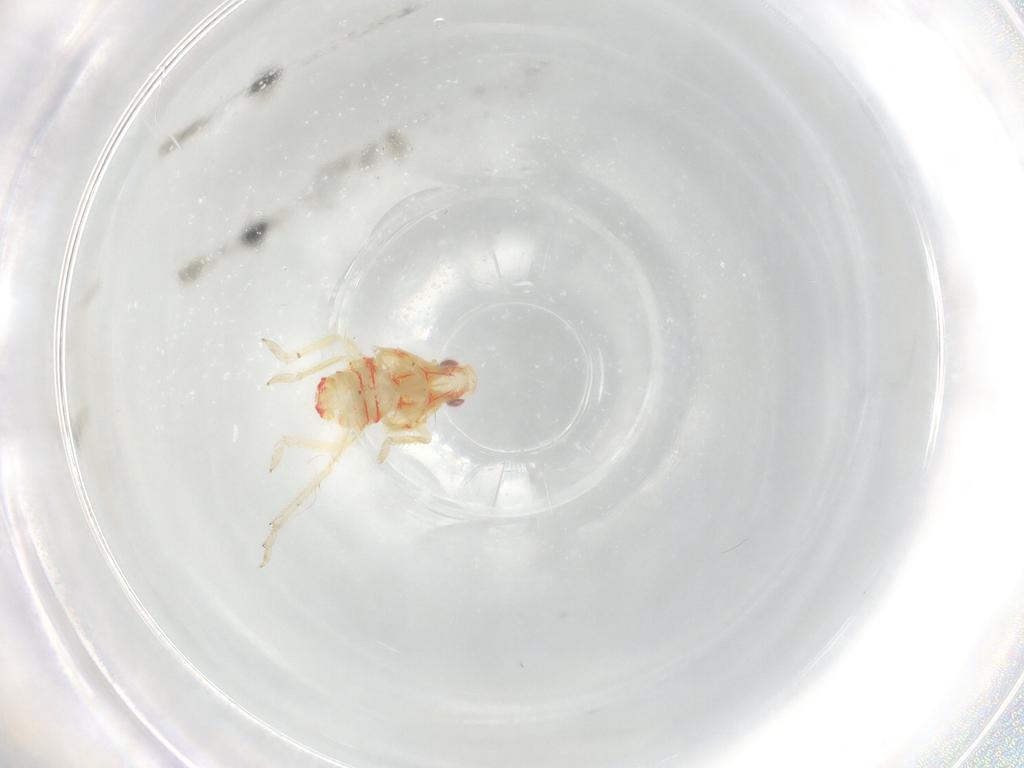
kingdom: Animalia
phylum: Arthropoda
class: Insecta
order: Hemiptera
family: Tropiduchidae
